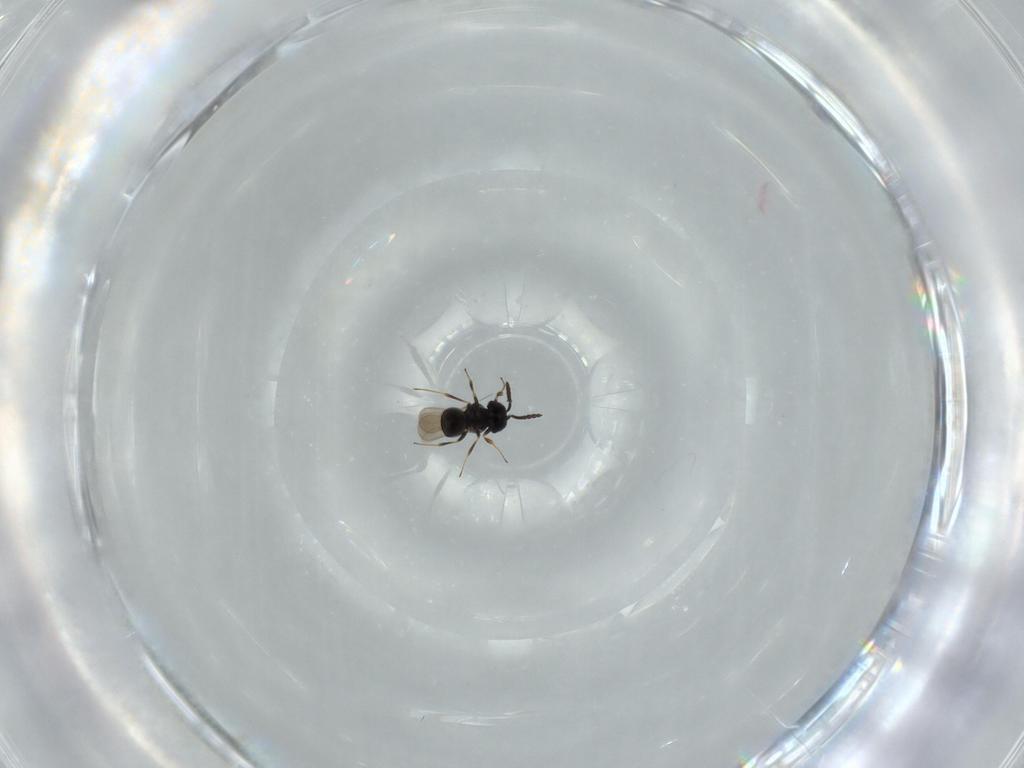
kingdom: Animalia
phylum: Arthropoda
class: Insecta
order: Hymenoptera
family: Scelionidae
